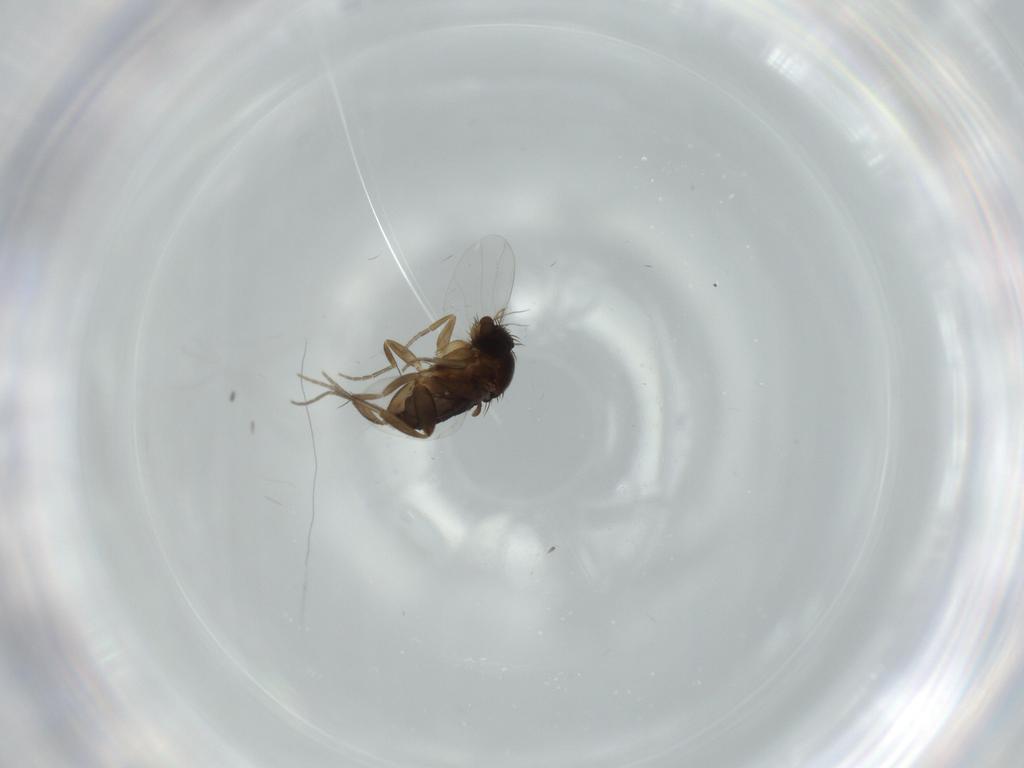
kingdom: Animalia
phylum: Arthropoda
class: Insecta
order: Diptera
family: Phoridae
